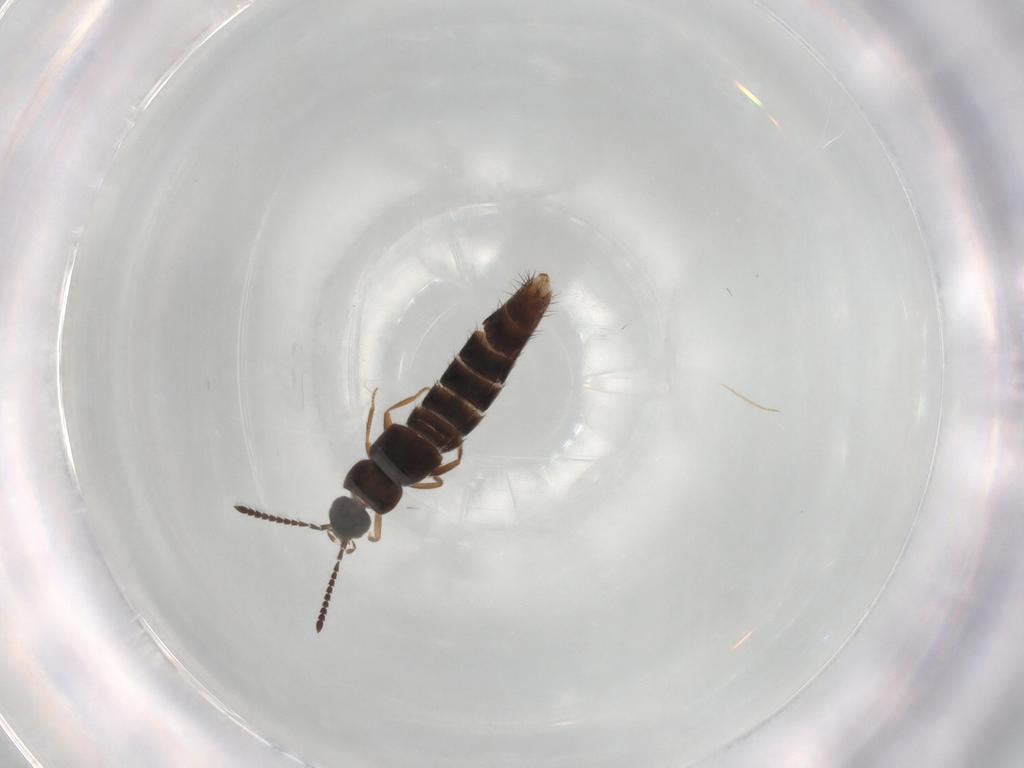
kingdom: Animalia
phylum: Arthropoda
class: Insecta
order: Coleoptera
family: Staphylinidae
